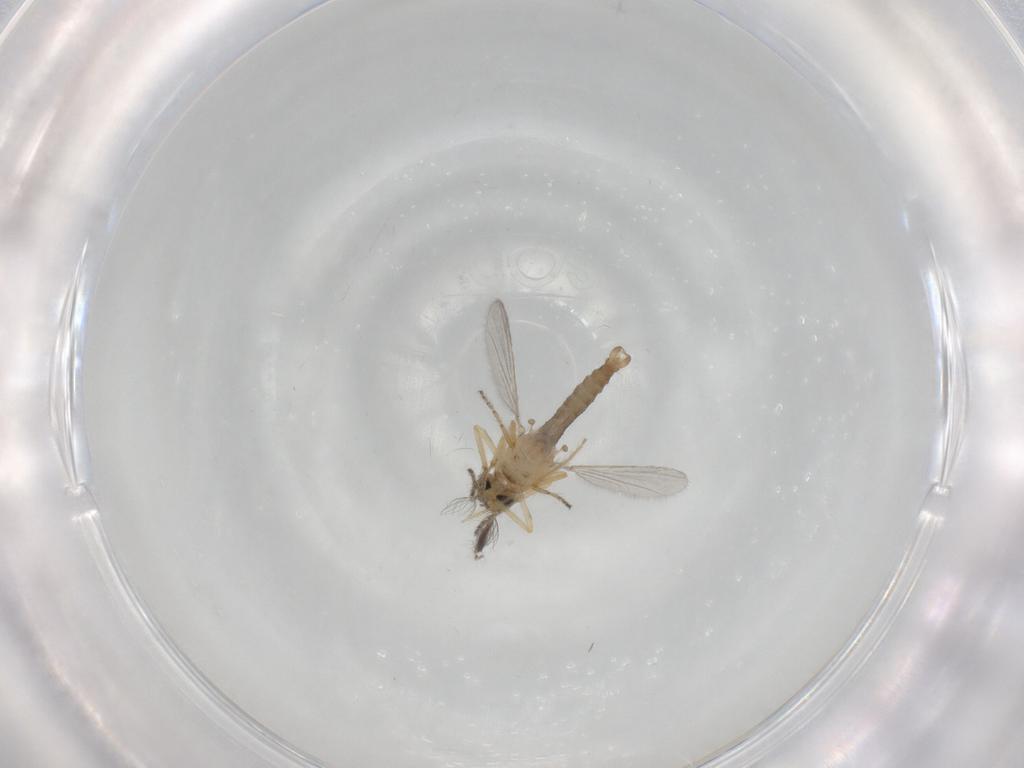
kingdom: Animalia
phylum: Arthropoda
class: Insecta
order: Diptera
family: Ceratopogonidae
